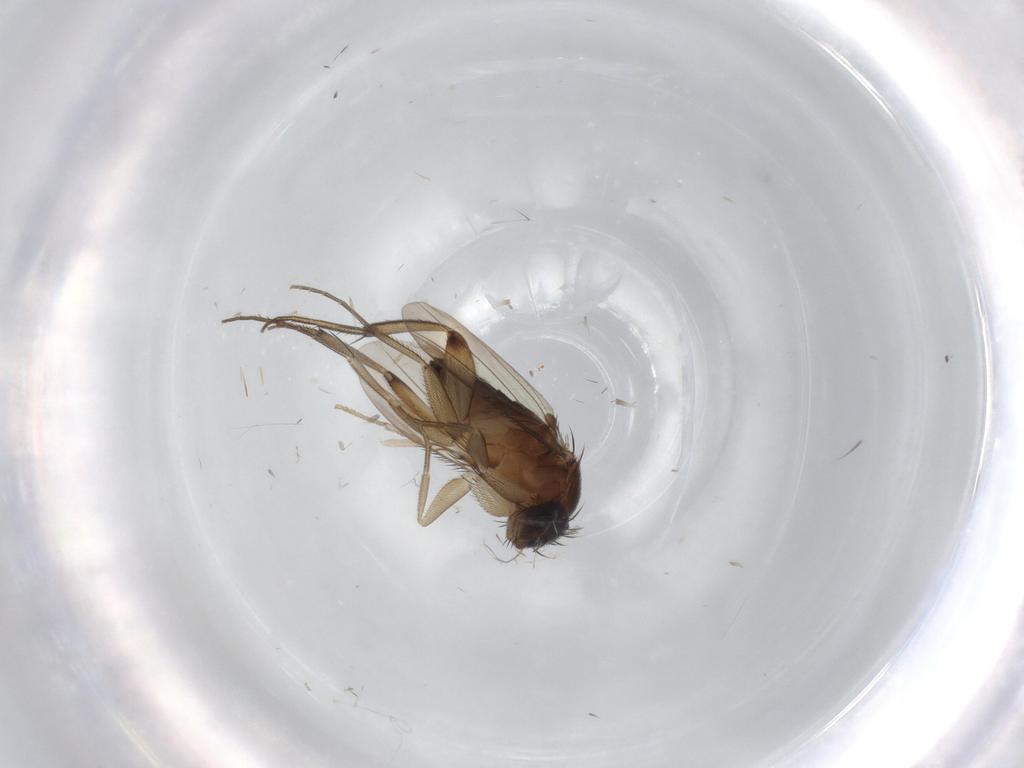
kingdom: Animalia
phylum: Arthropoda
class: Insecta
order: Diptera
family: Phoridae
